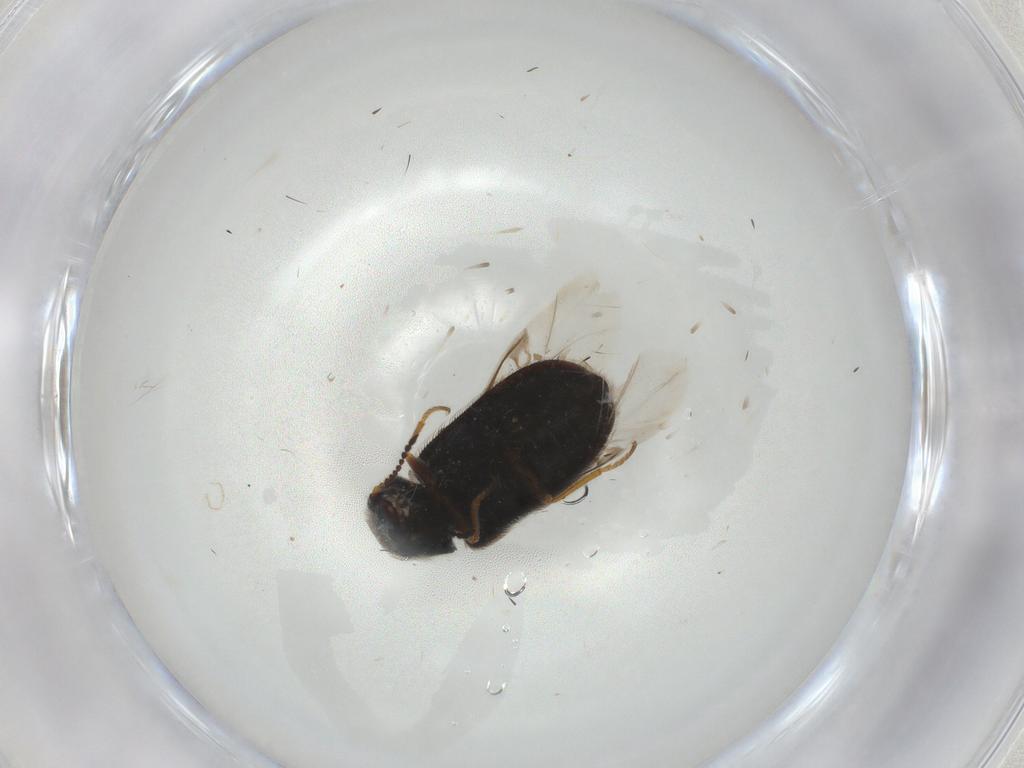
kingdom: Animalia
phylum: Arthropoda
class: Insecta
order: Coleoptera
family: Melyridae
